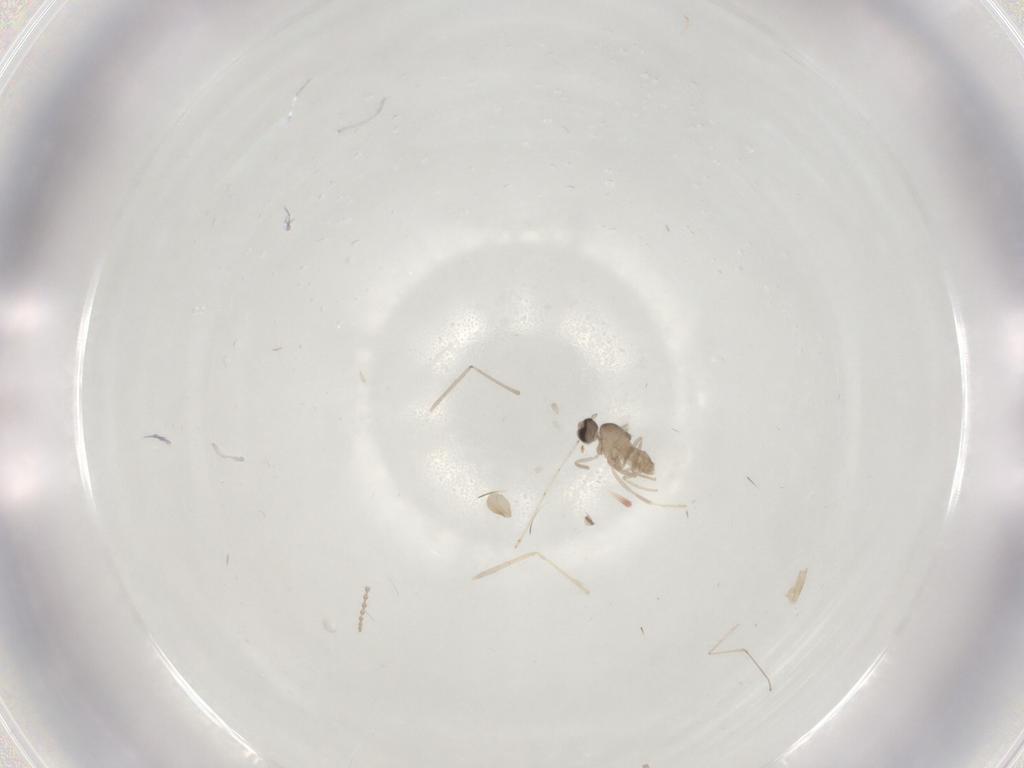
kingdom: Animalia
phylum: Arthropoda
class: Insecta
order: Diptera
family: Cecidomyiidae
